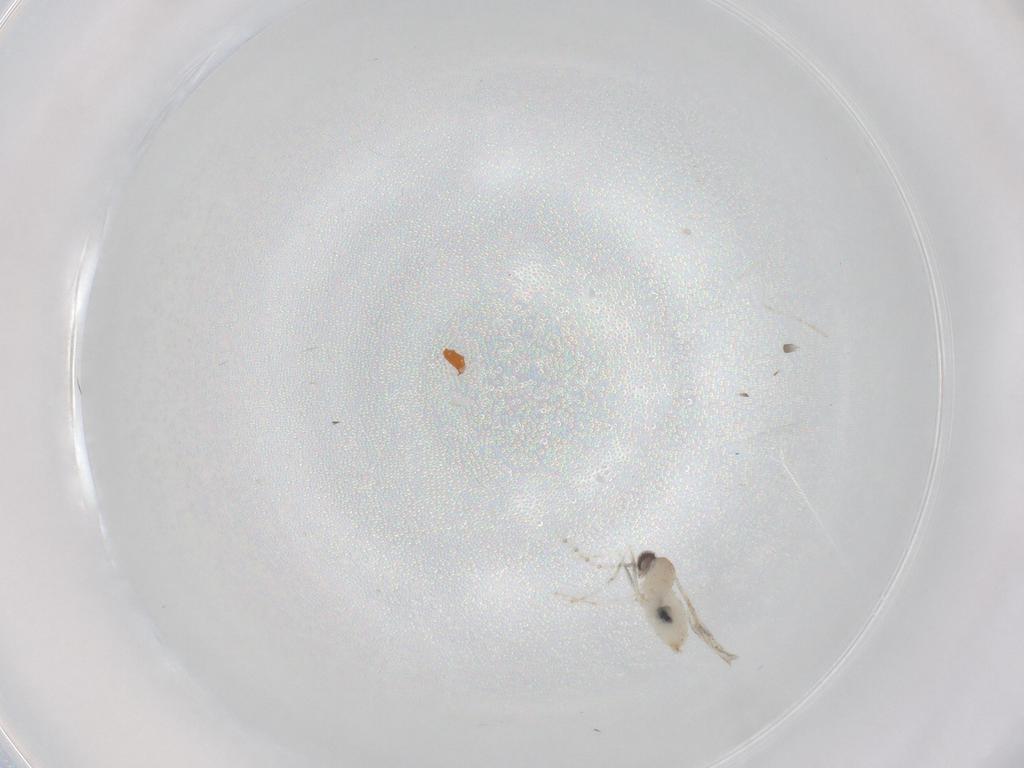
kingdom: Animalia
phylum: Arthropoda
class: Insecta
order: Diptera
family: Cecidomyiidae
